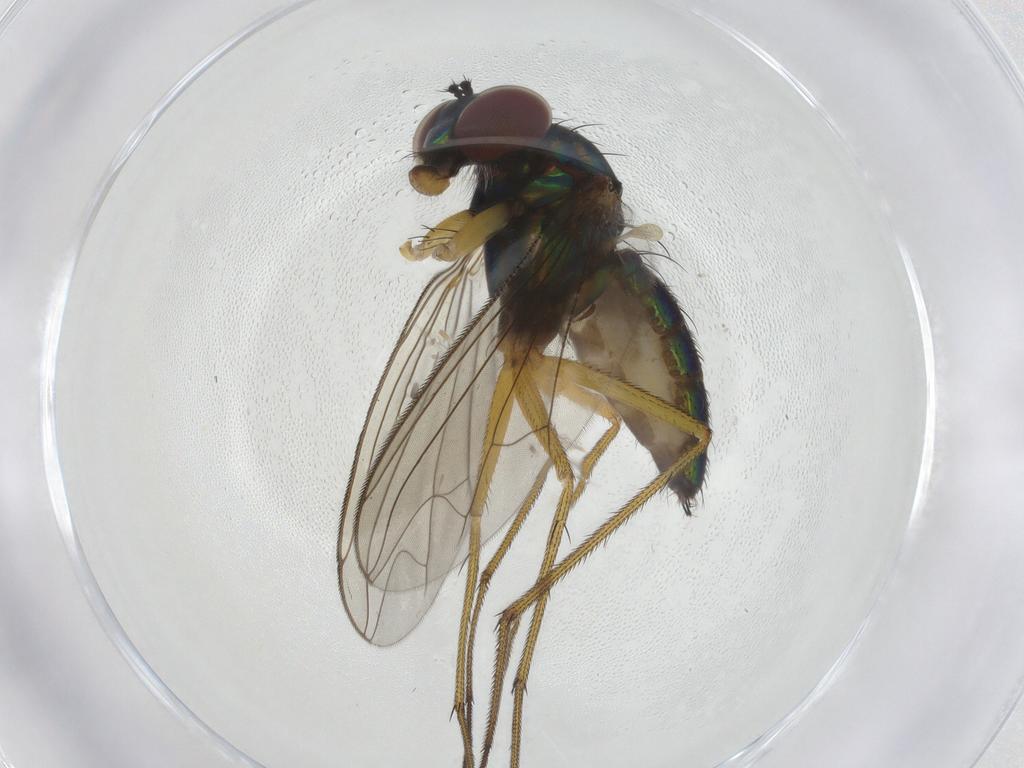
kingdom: Animalia
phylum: Arthropoda
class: Insecta
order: Diptera
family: Dolichopodidae
